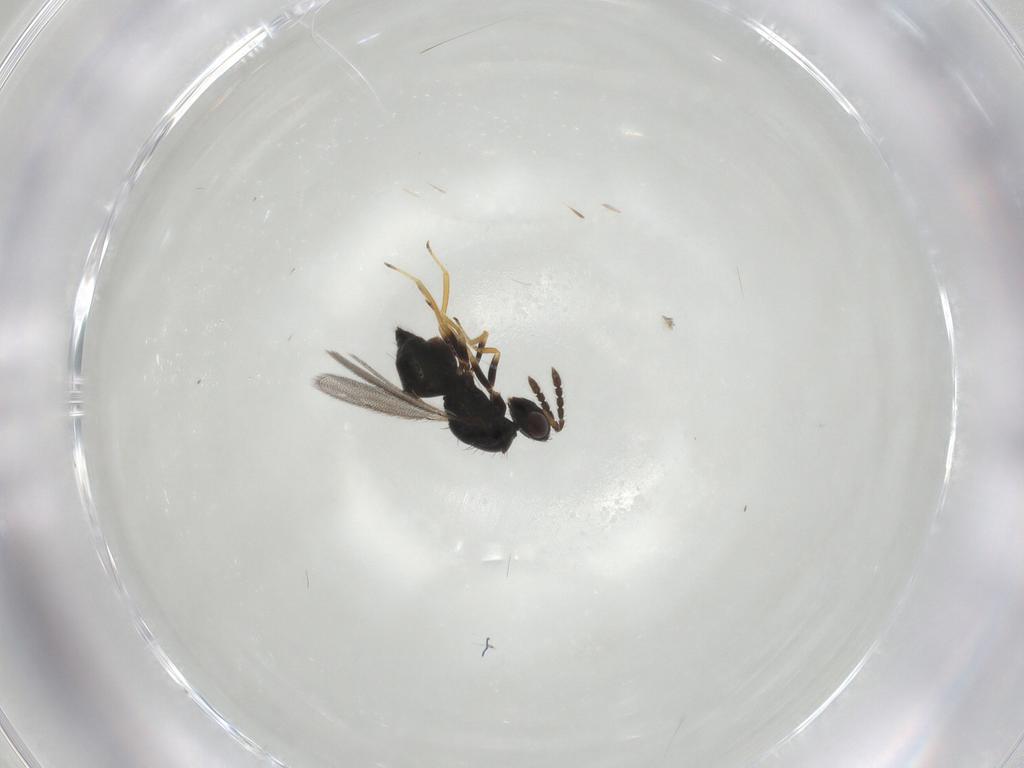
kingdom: Animalia
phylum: Arthropoda
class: Insecta
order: Hymenoptera
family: Eulophidae
